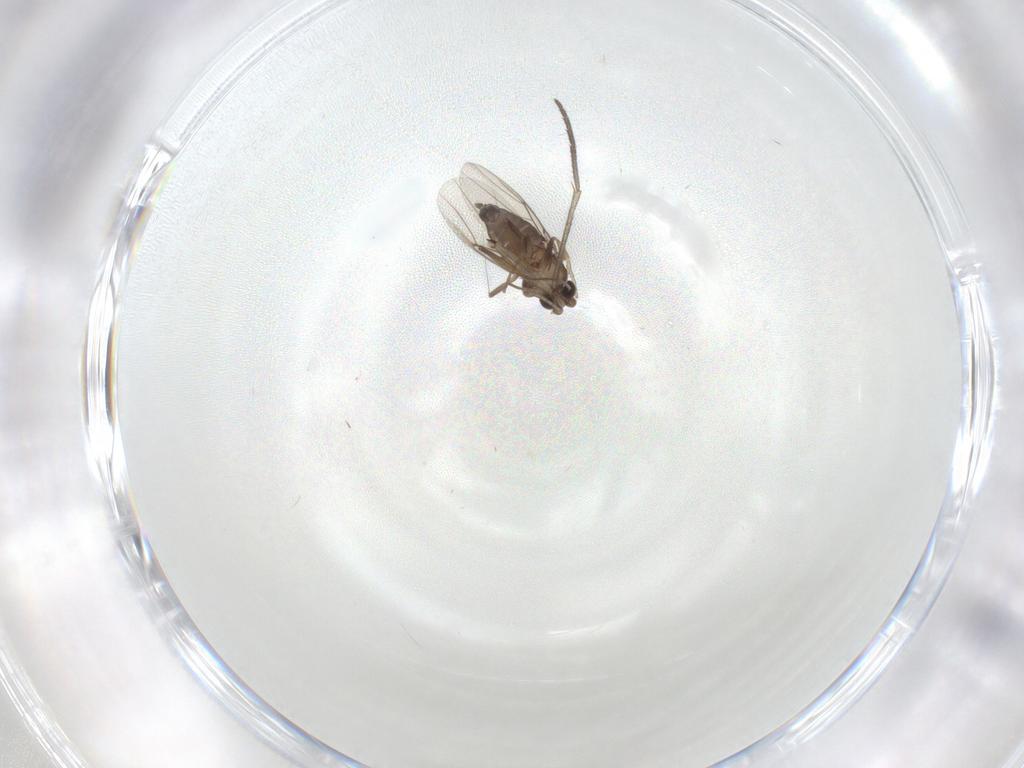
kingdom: Animalia
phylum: Arthropoda
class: Insecta
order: Diptera
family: Phoridae
